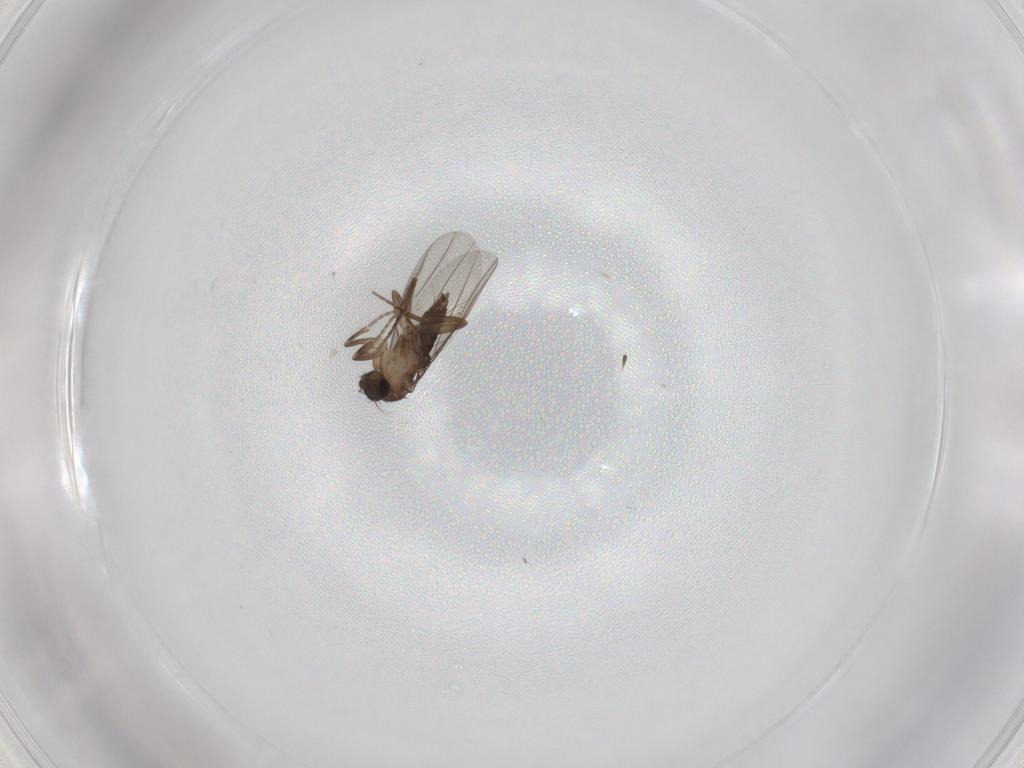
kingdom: Animalia
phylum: Arthropoda
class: Insecta
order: Diptera
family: Phoridae
